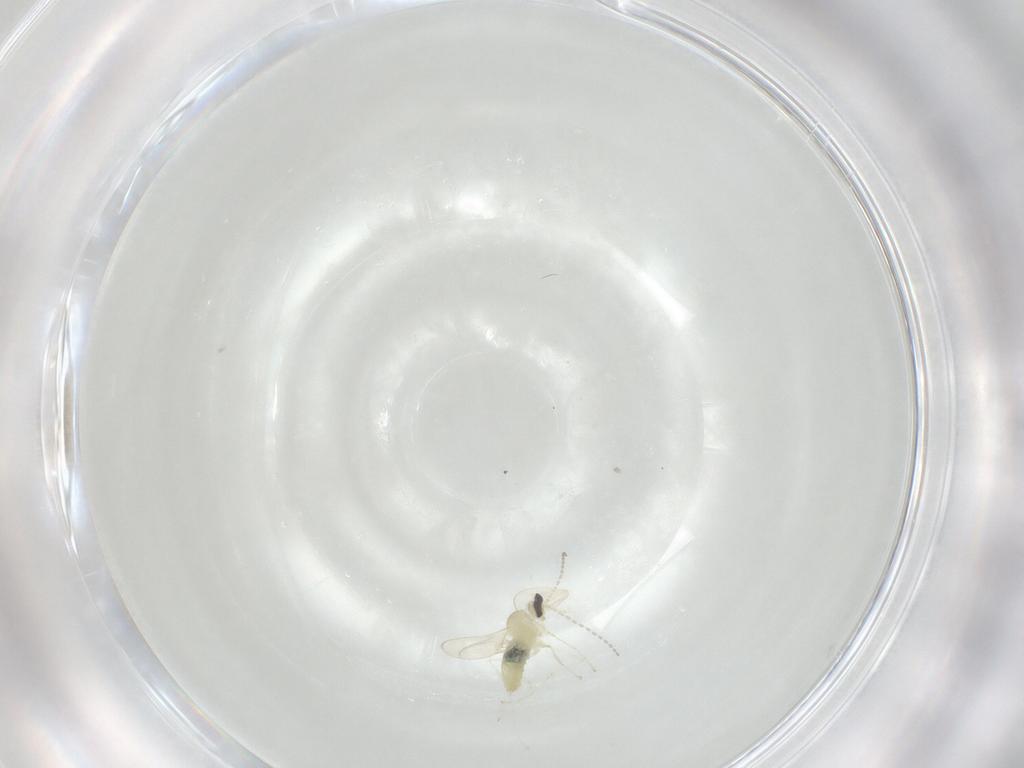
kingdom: Animalia
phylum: Arthropoda
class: Insecta
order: Diptera
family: Cecidomyiidae
